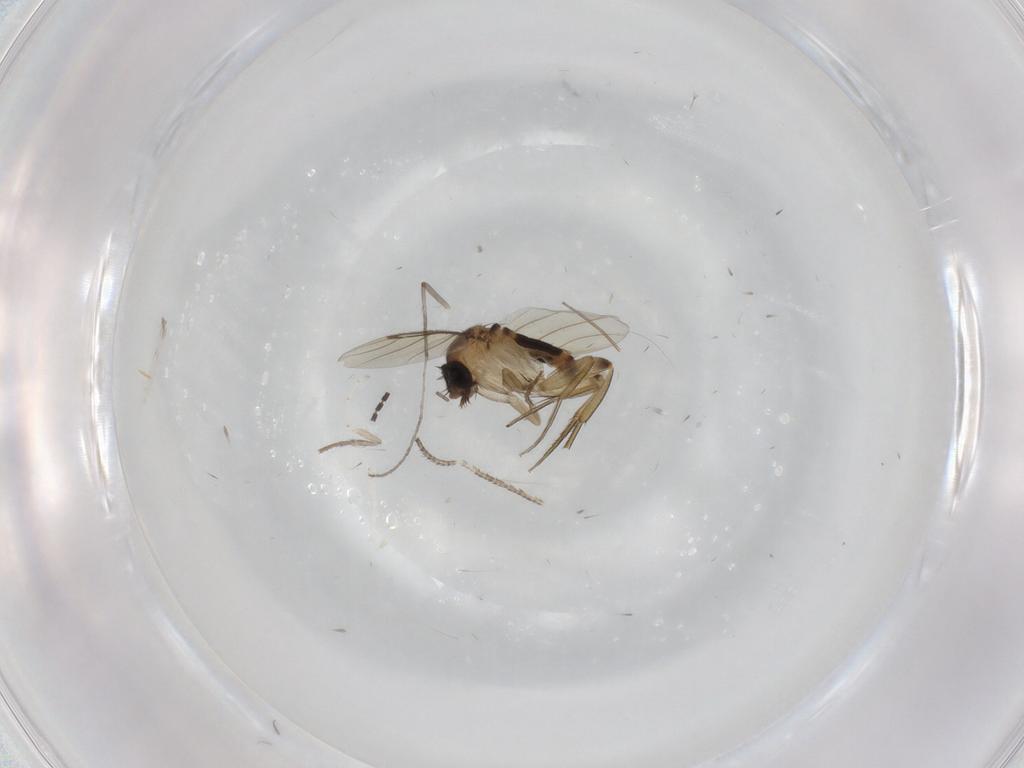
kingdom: Animalia
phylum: Arthropoda
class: Insecta
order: Diptera
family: Phoridae
